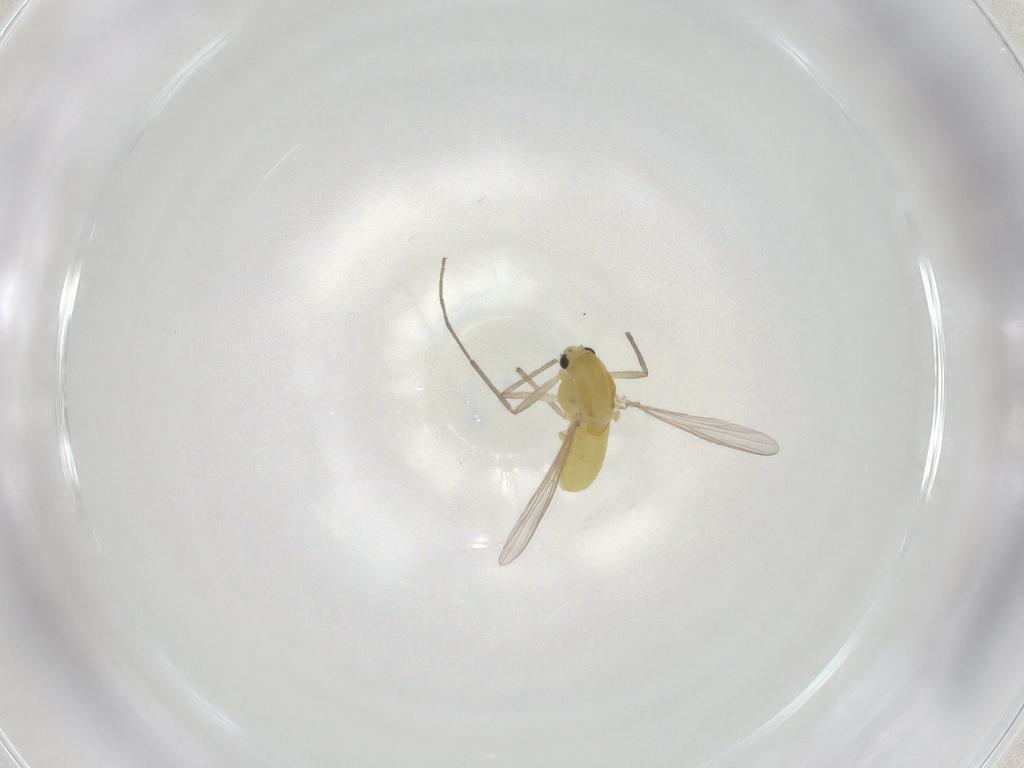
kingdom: Animalia
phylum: Arthropoda
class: Insecta
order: Diptera
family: Chironomidae
